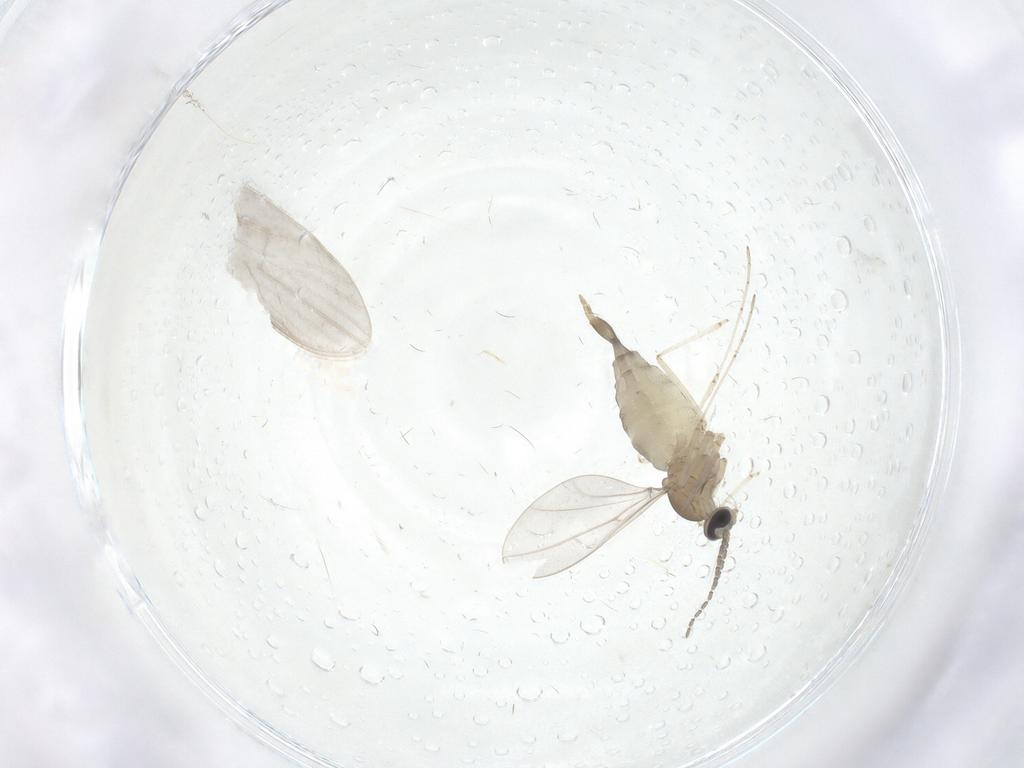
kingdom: Animalia
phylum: Arthropoda
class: Insecta
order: Diptera
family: Cecidomyiidae
